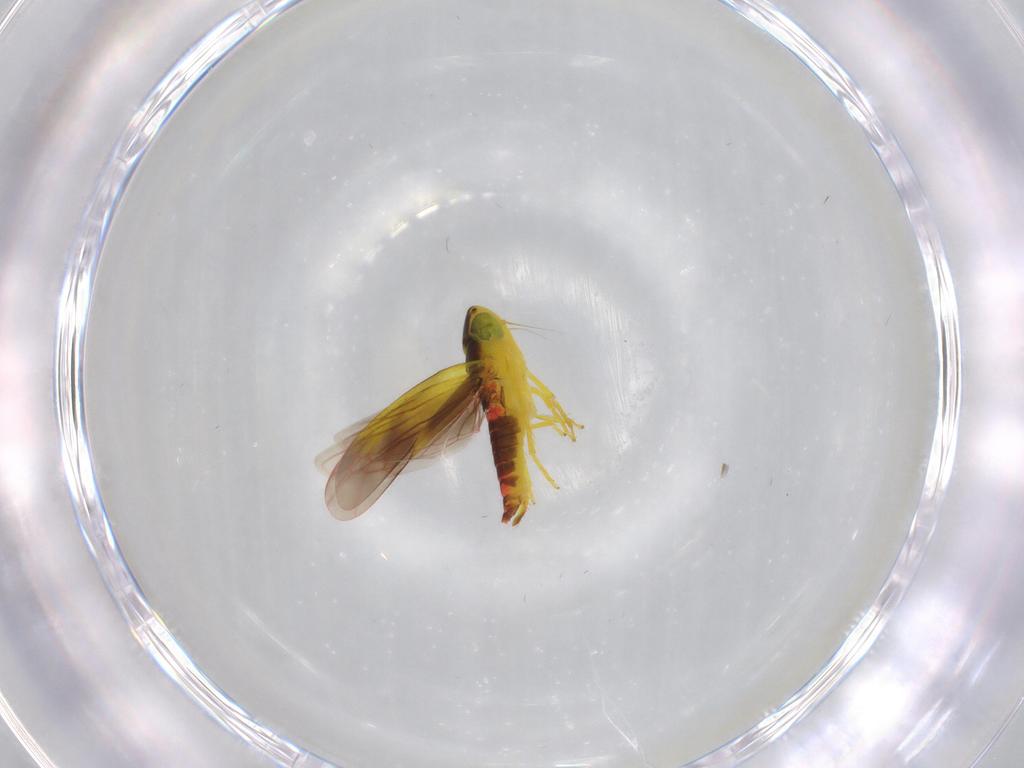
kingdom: Animalia
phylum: Arthropoda
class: Insecta
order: Hemiptera
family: Cicadellidae
